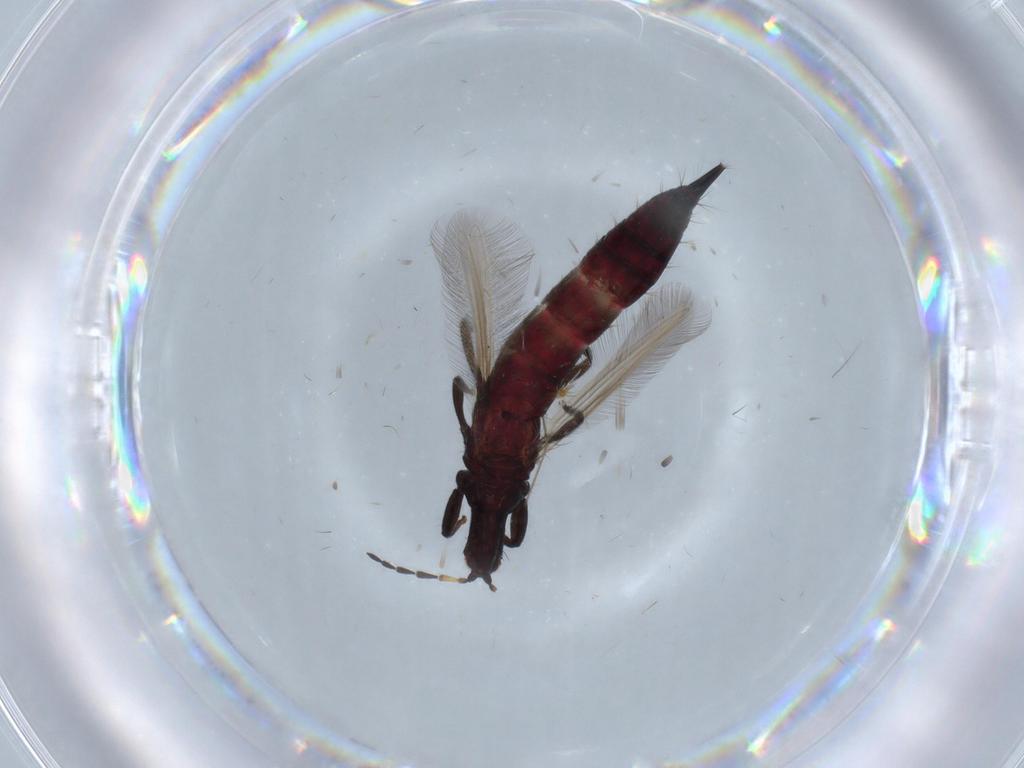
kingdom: Animalia
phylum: Arthropoda
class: Insecta
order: Thysanoptera
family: Phlaeothripidae
